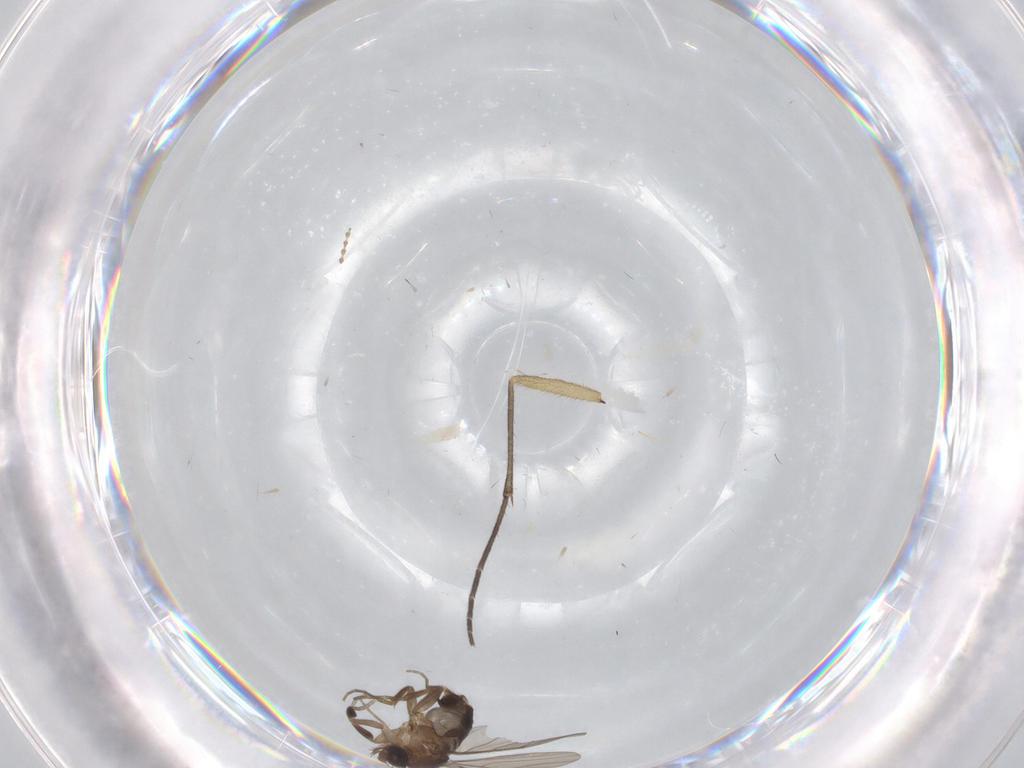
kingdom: Animalia
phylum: Arthropoda
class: Insecta
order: Diptera
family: Phoridae
